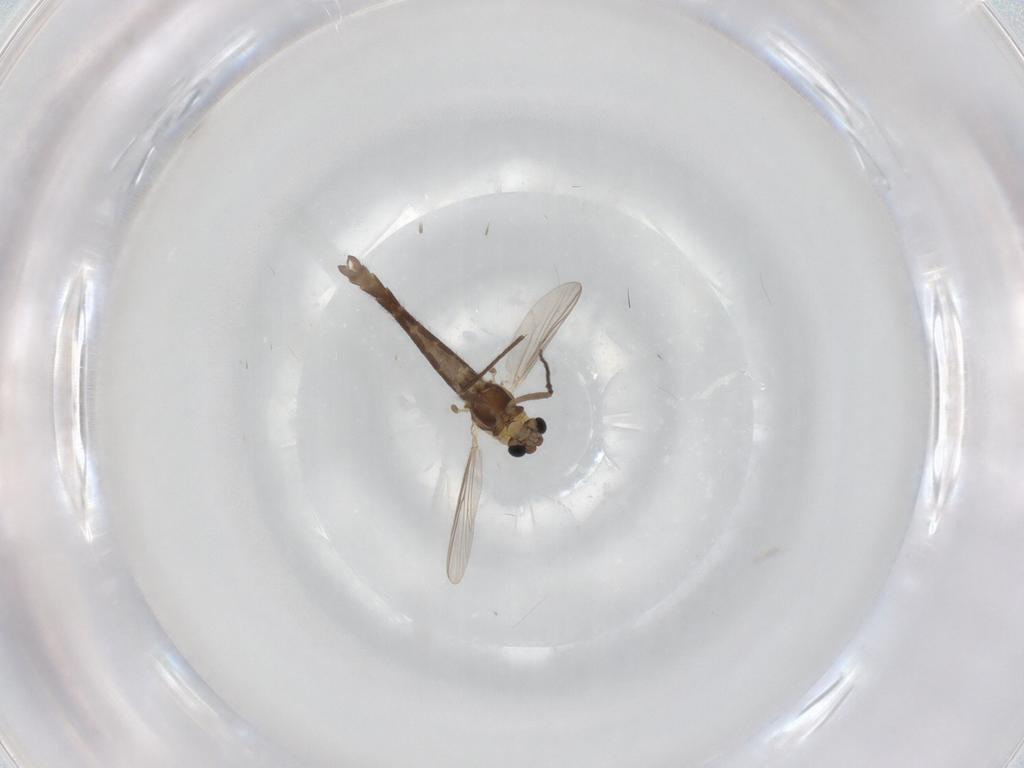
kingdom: Animalia
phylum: Arthropoda
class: Insecta
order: Diptera
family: Chironomidae
